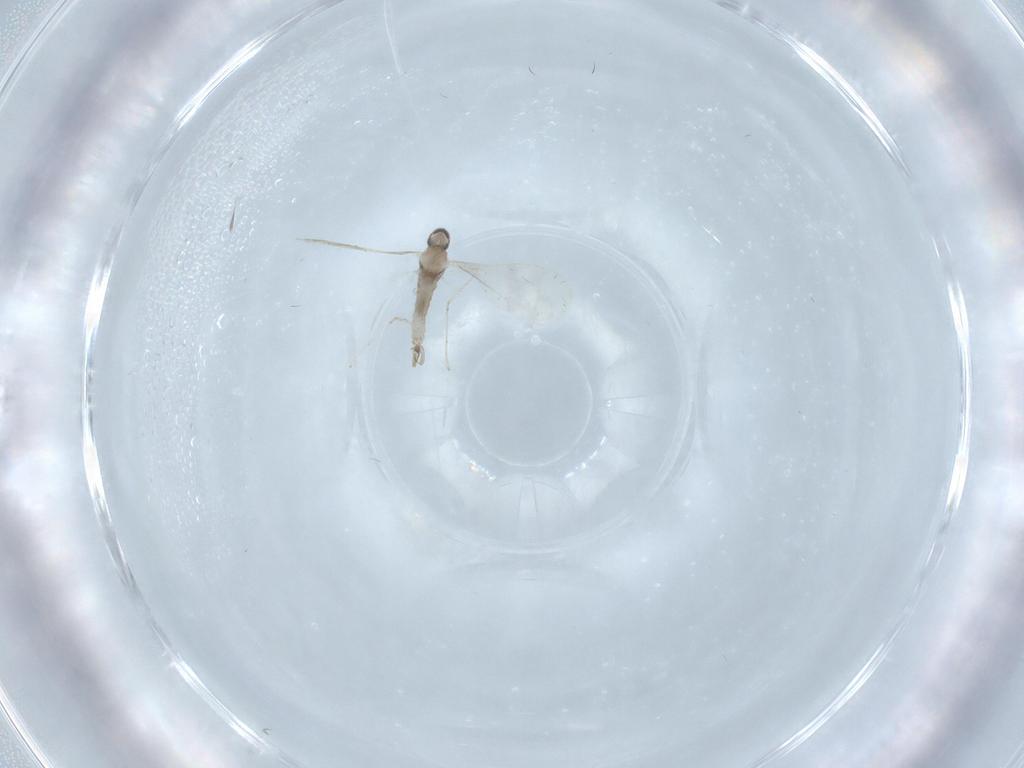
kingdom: Animalia
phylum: Arthropoda
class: Insecta
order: Diptera
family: Cecidomyiidae
